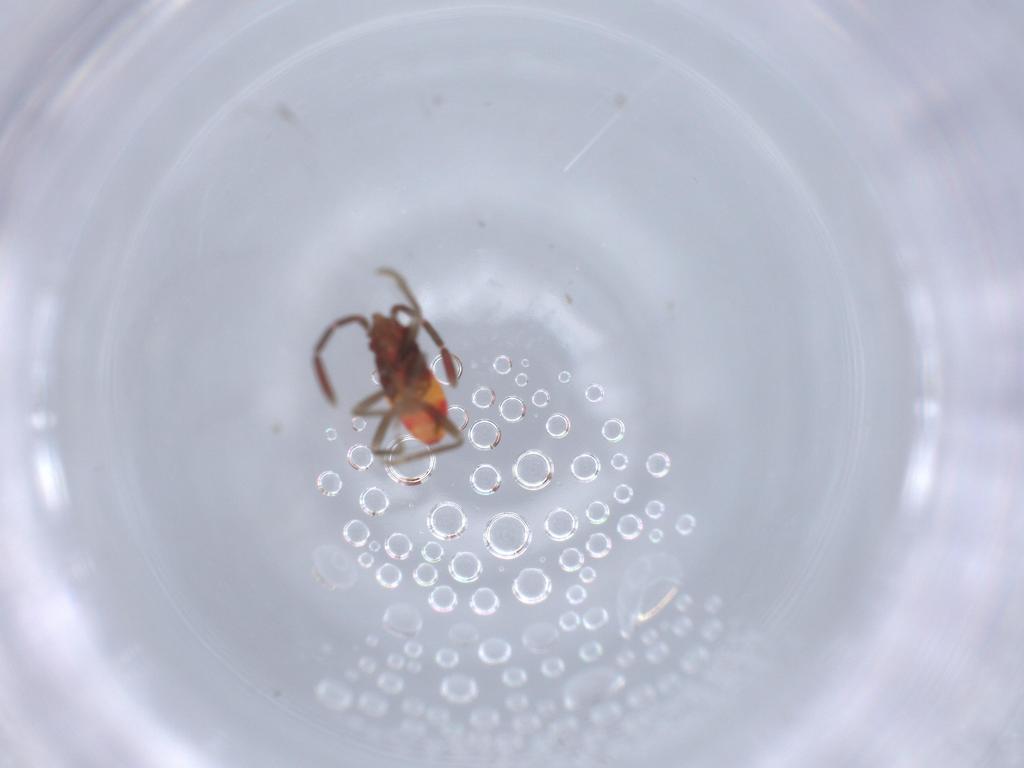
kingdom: Animalia
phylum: Arthropoda
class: Insecta
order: Hemiptera
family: Rhyparochromidae
